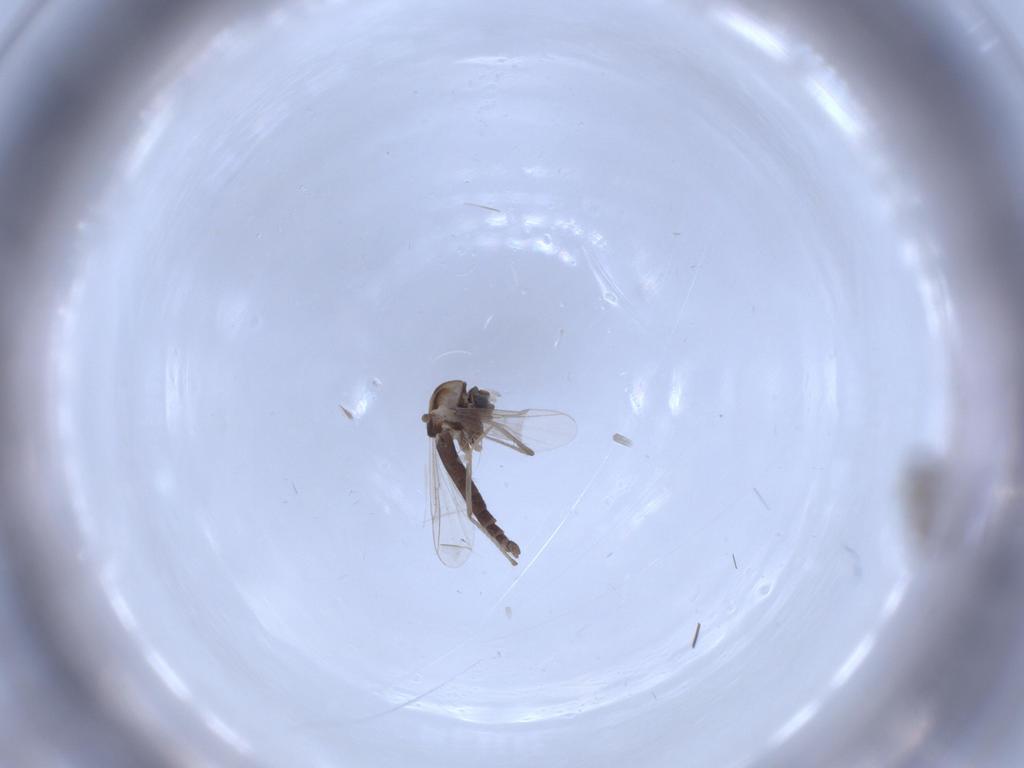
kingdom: Animalia
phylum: Arthropoda
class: Insecta
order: Diptera
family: Chironomidae
